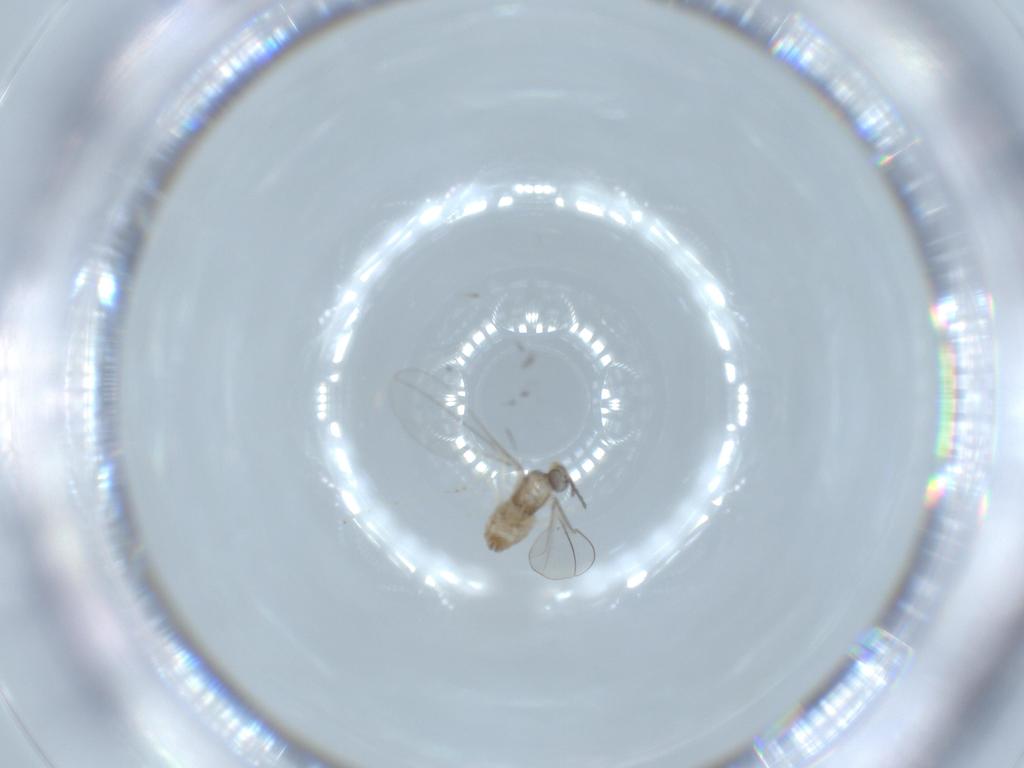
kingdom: Animalia
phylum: Arthropoda
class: Insecta
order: Diptera
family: Cecidomyiidae
